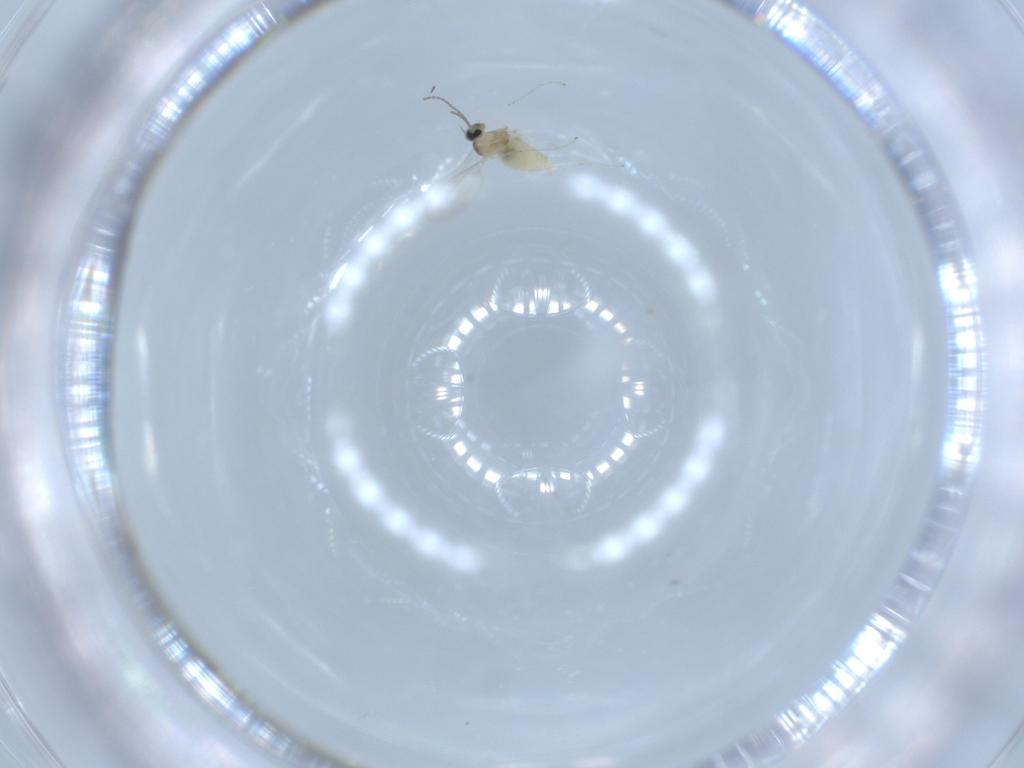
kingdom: Animalia
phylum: Arthropoda
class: Insecta
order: Diptera
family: Cecidomyiidae
